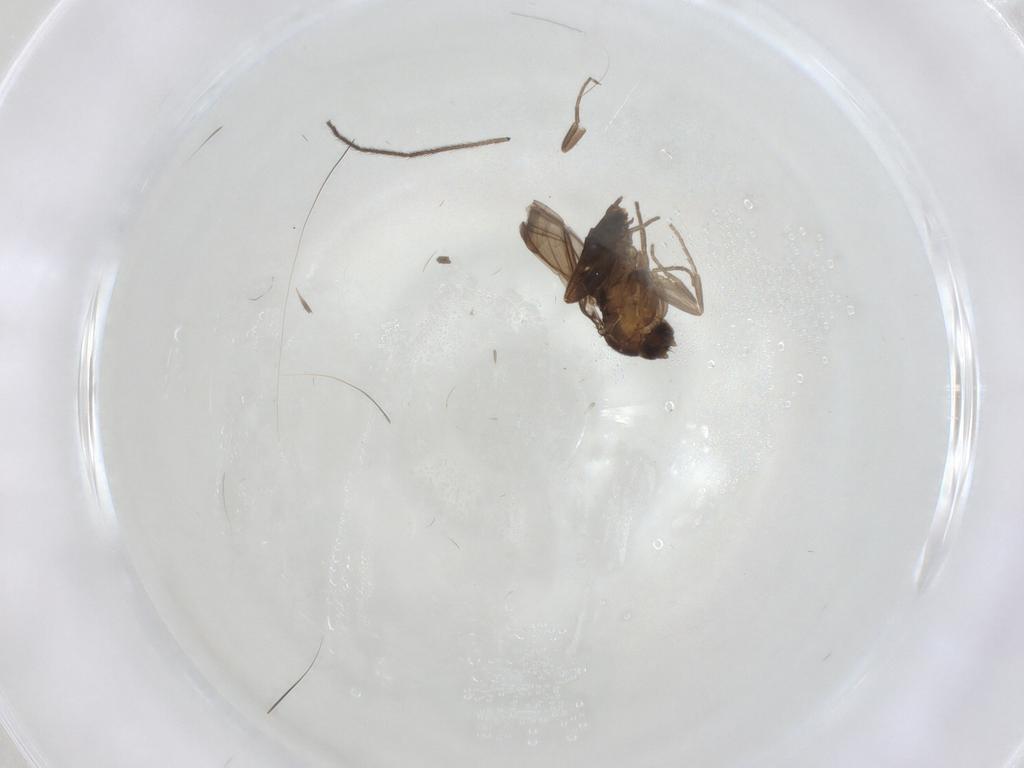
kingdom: Animalia
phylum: Arthropoda
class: Insecta
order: Diptera
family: Phoridae
